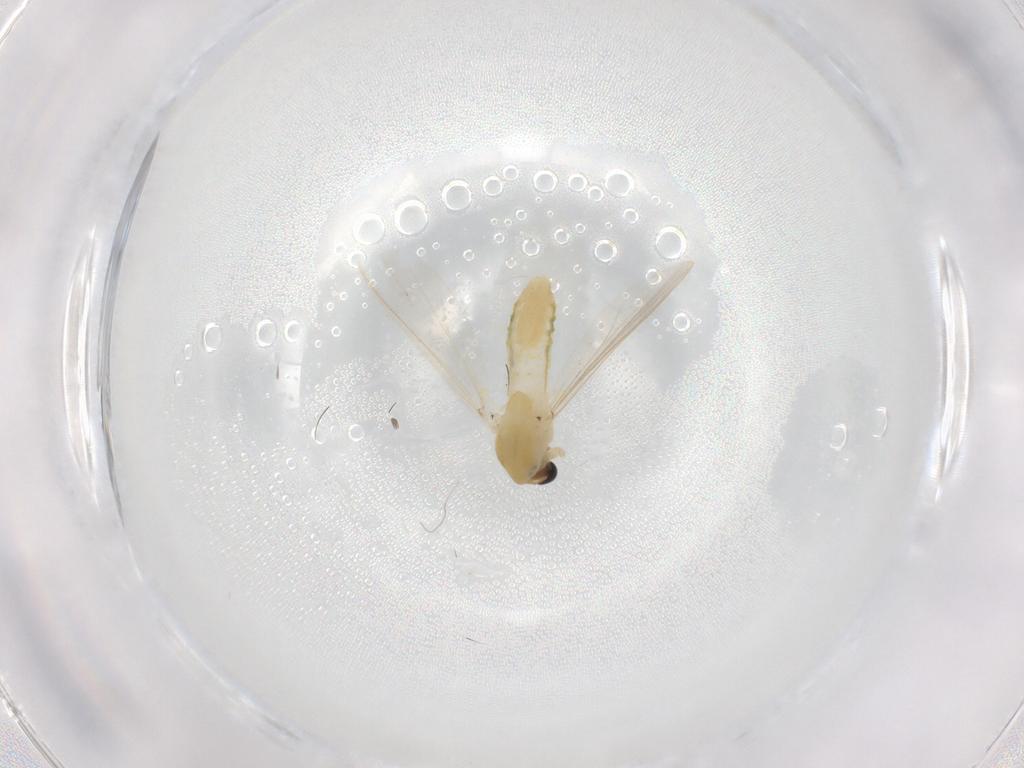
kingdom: Animalia
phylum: Arthropoda
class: Insecta
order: Diptera
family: Chironomidae
